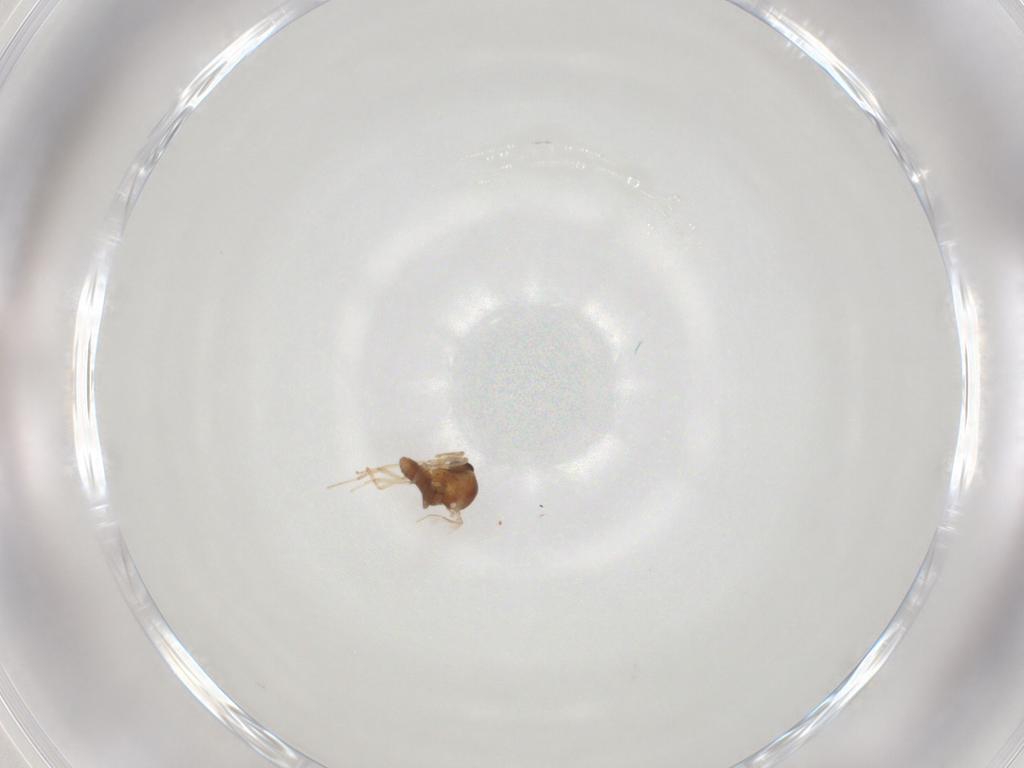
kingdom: Animalia
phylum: Arthropoda
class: Insecta
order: Diptera
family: Ceratopogonidae
